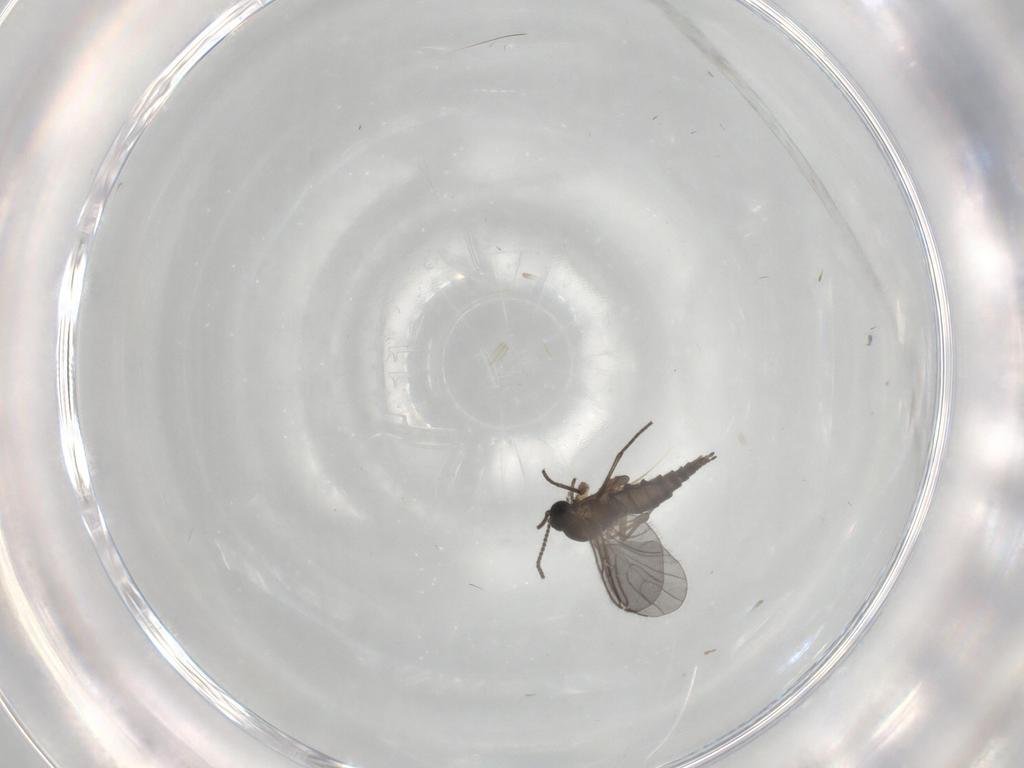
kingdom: Animalia
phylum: Arthropoda
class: Insecta
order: Diptera
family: Sciaridae
